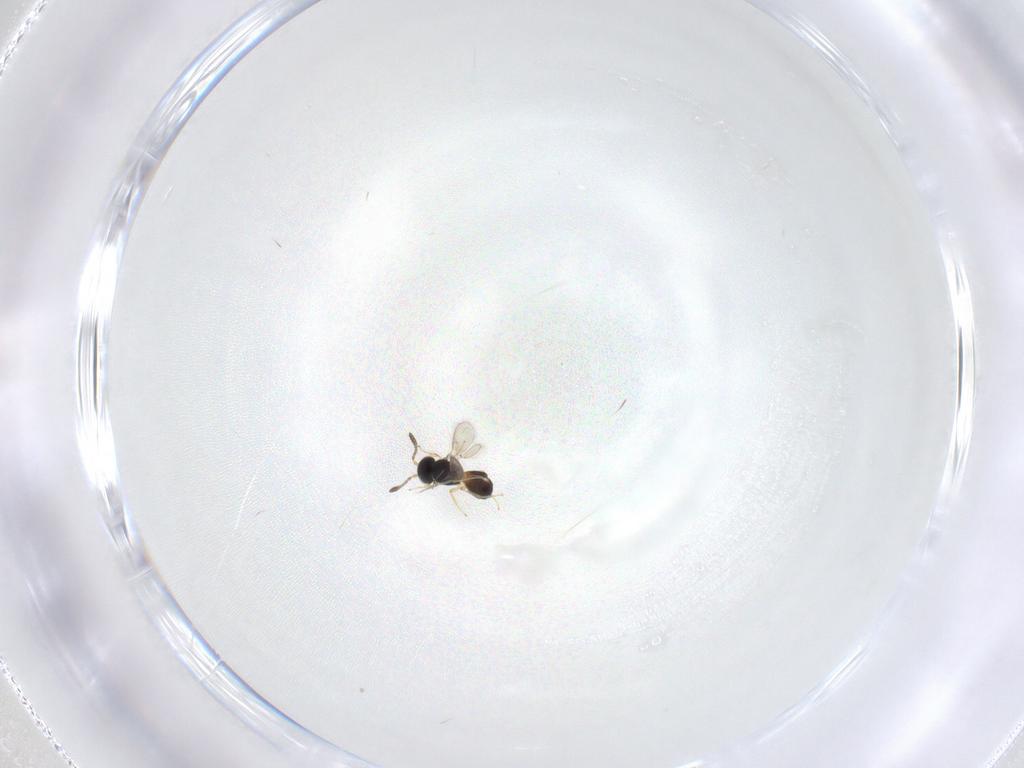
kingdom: Animalia
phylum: Arthropoda
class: Insecta
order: Hymenoptera
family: Scelionidae
